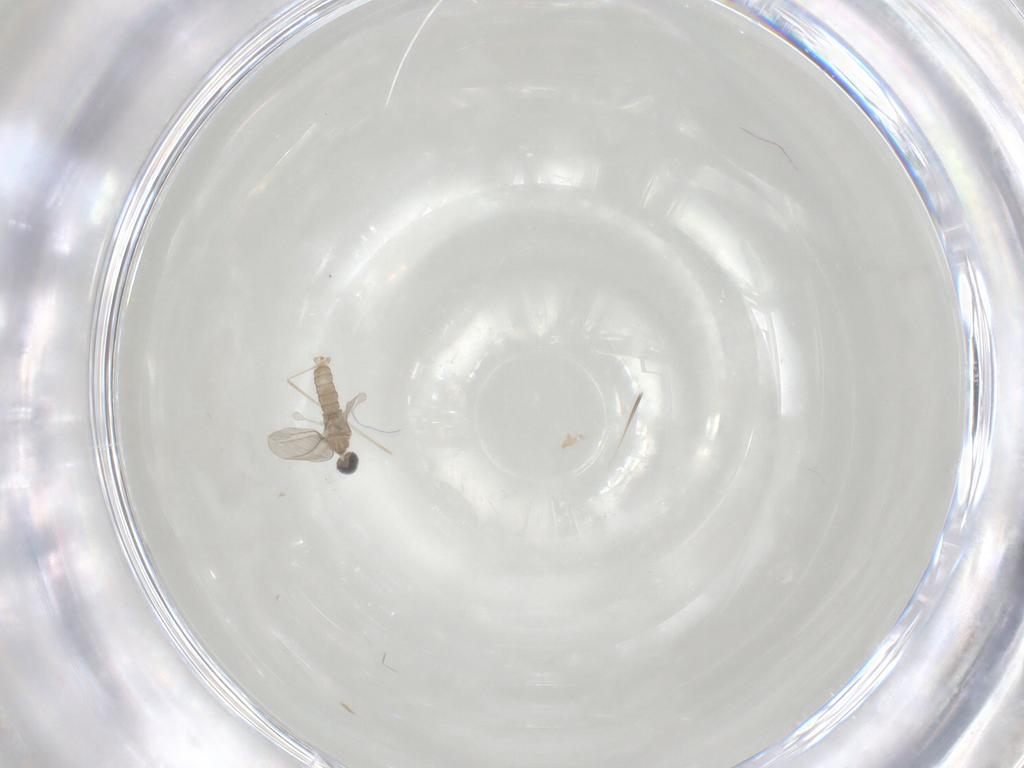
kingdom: Animalia
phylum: Arthropoda
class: Insecta
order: Diptera
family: Cecidomyiidae
